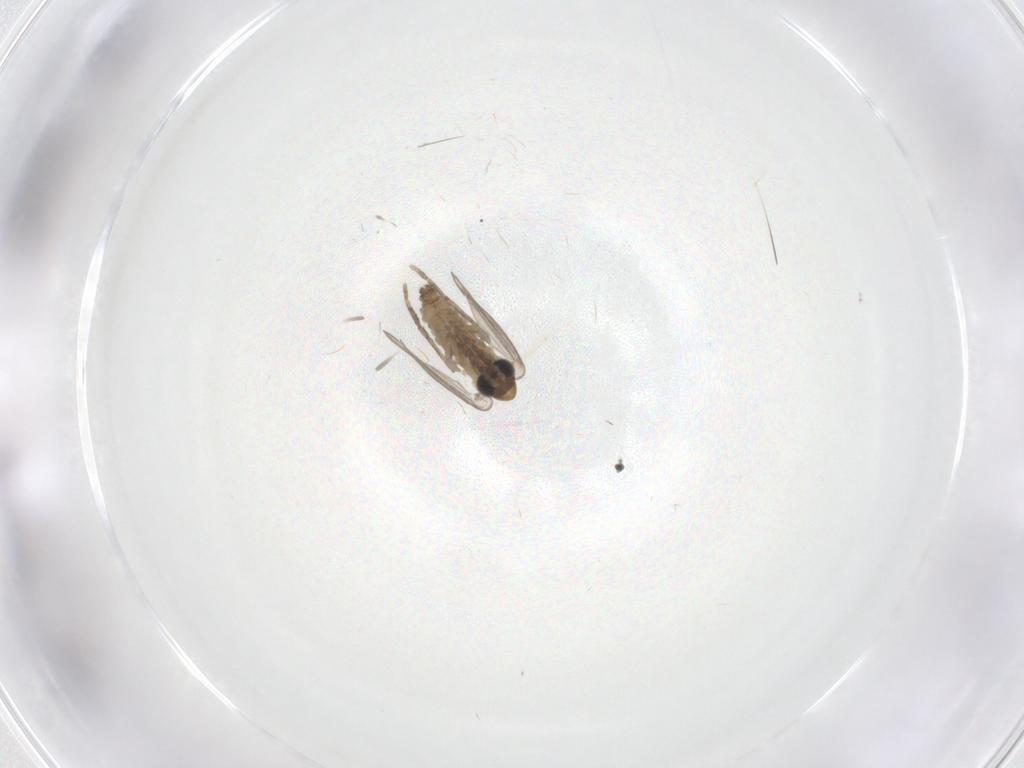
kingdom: Animalia
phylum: Arthropoda
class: Insecta
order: Diptera
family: Psychodidae
